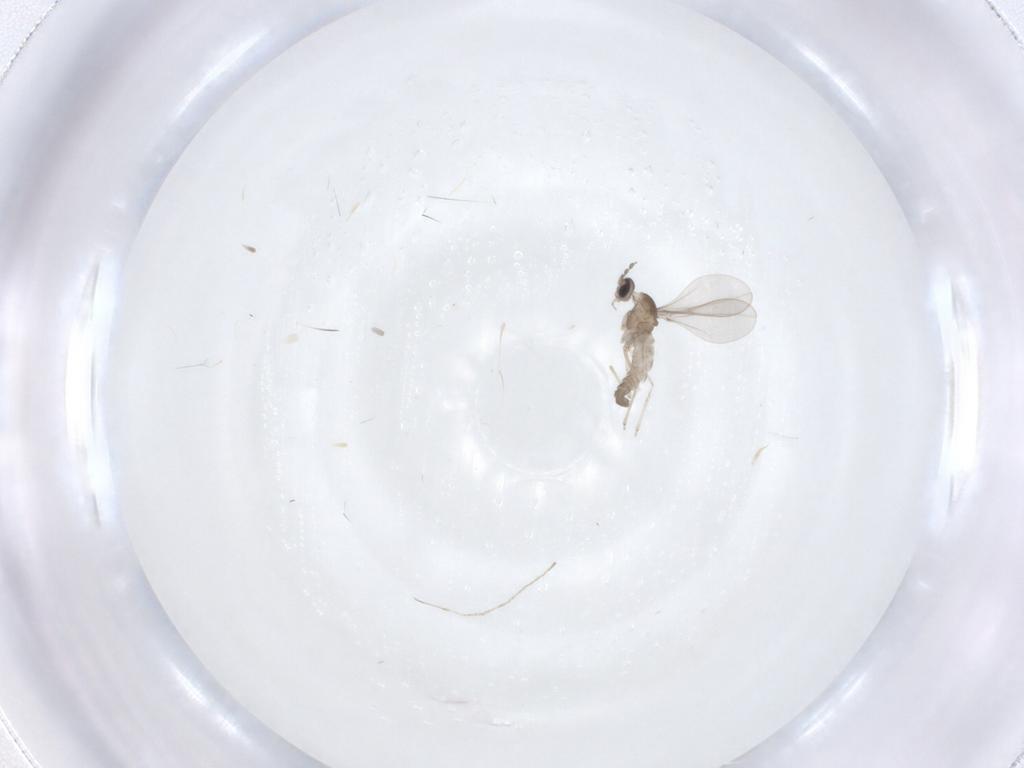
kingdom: Animalia
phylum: Arthropoda
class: Insecta
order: Diptera
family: Cecidomyiidae
